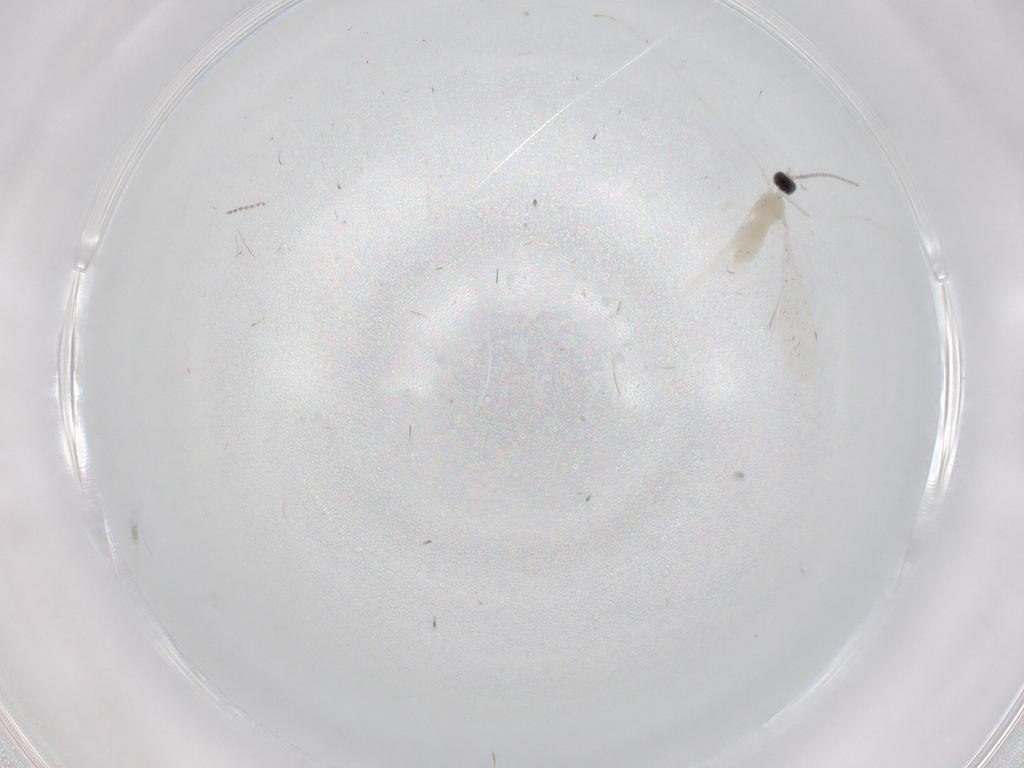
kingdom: Animalia
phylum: Arthropoda
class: Insecta
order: Diptera
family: Cecidomyiidae
